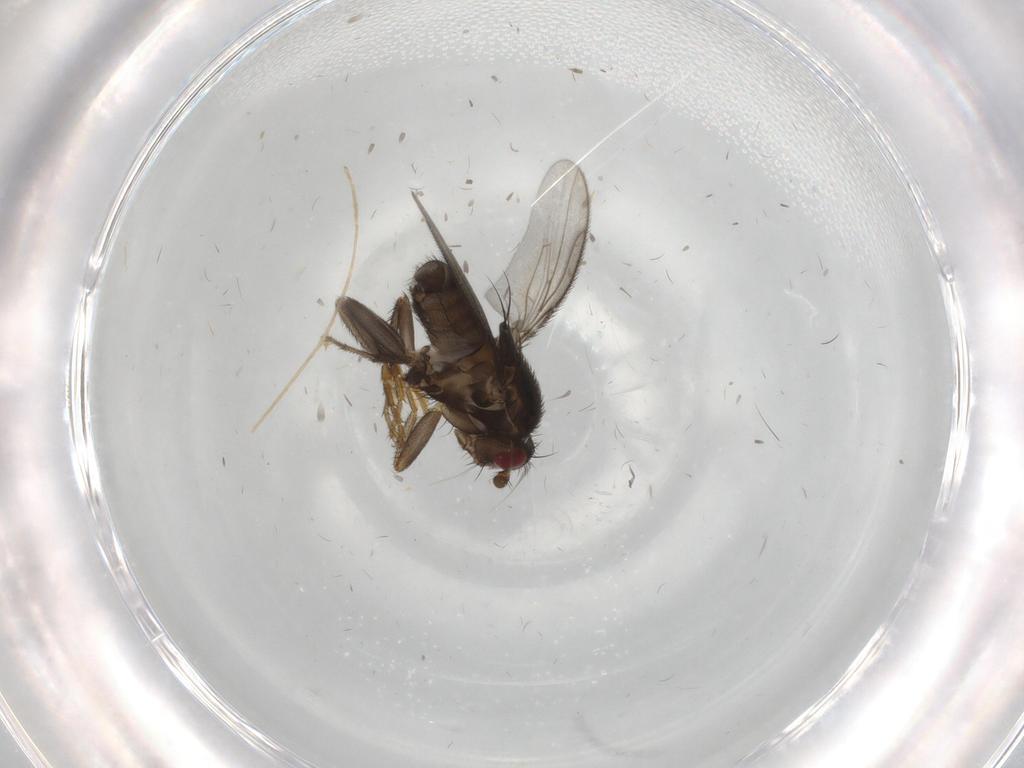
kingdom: Animalia
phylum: Arthropoda
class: Insecta
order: Diptera
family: Sphaeroceridae
